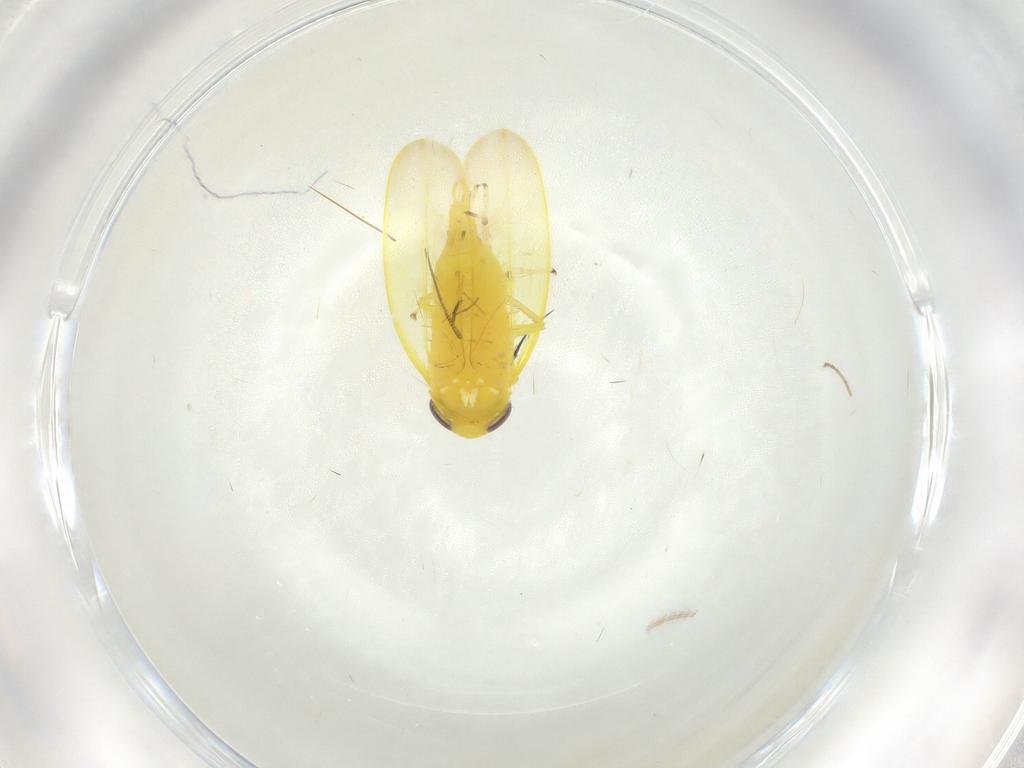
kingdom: Animalia
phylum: Arthropoda
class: Insecta
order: Hemiptera
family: Cicadellidae
